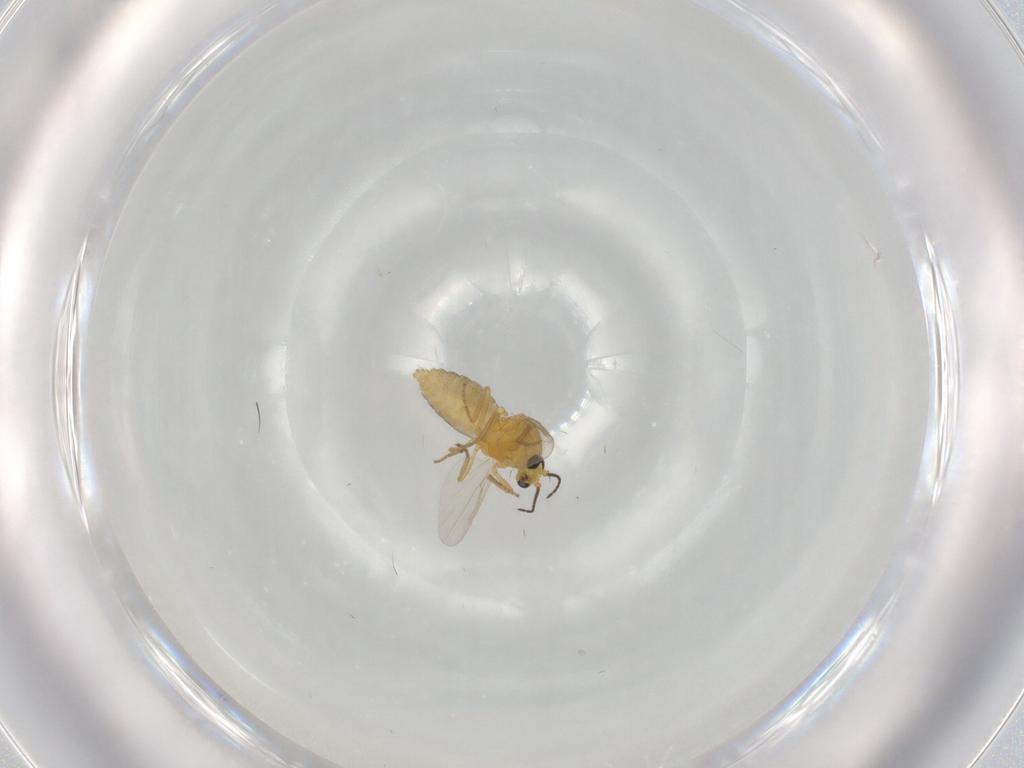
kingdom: Animalia
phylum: Arthropoda
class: Insecta
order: Diptera
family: Ceratopogonidae
